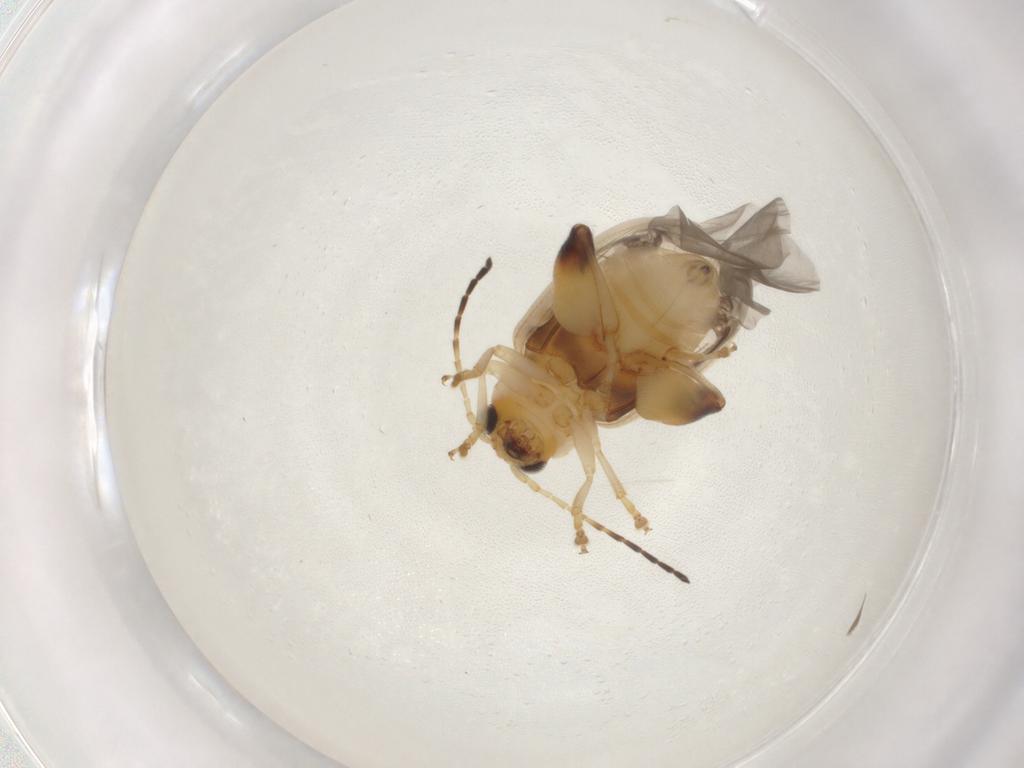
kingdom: Animalia
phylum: Arthropoda
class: Insecta
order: Coleoptera
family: Chrysomelidae
